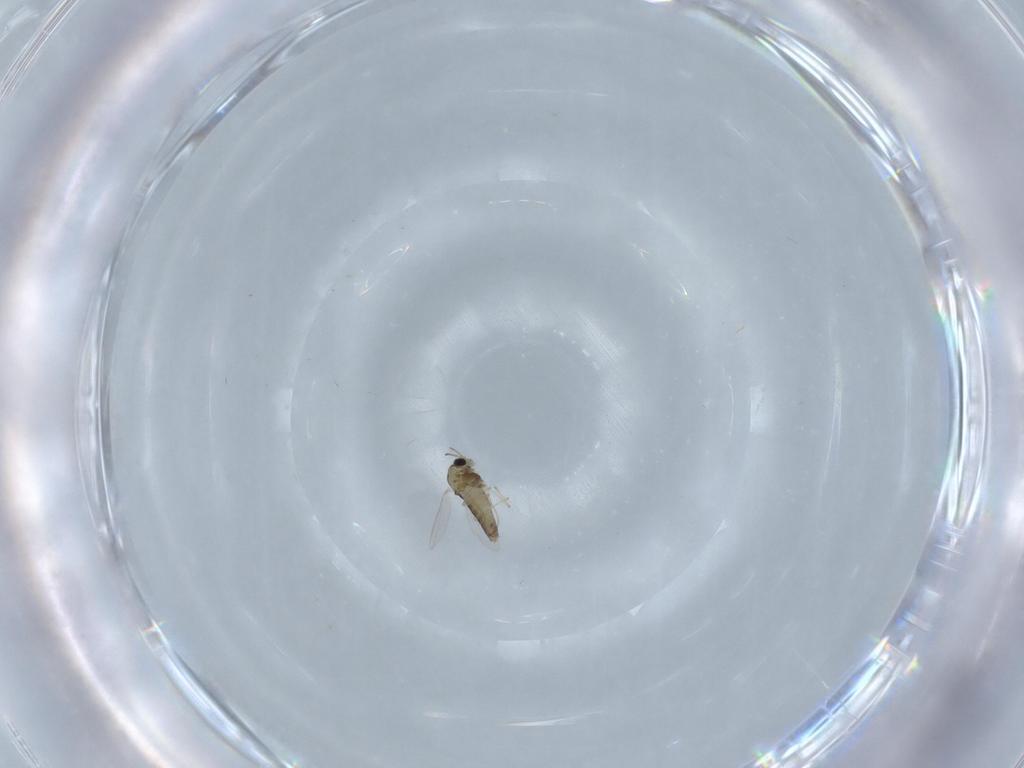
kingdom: Animalia
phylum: Arthropoda
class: Insecta
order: Diptera
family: Chironomidae
